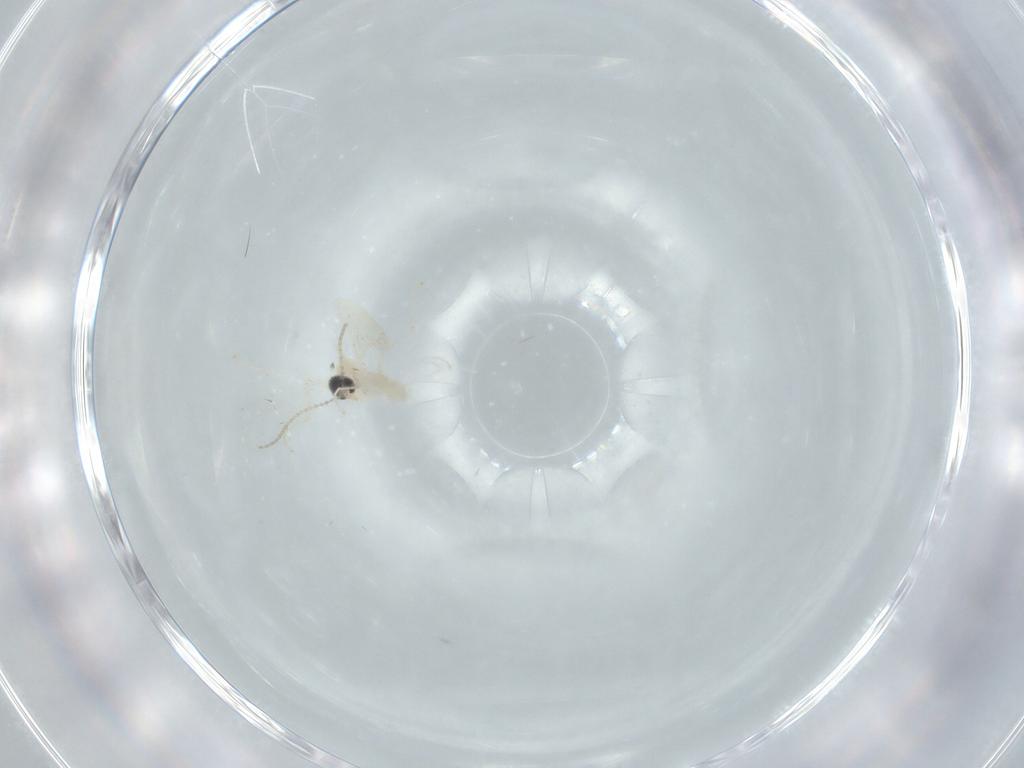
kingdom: Animalia
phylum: Arthropoda
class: Insecta
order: Diptera
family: Cecidomyiidae
